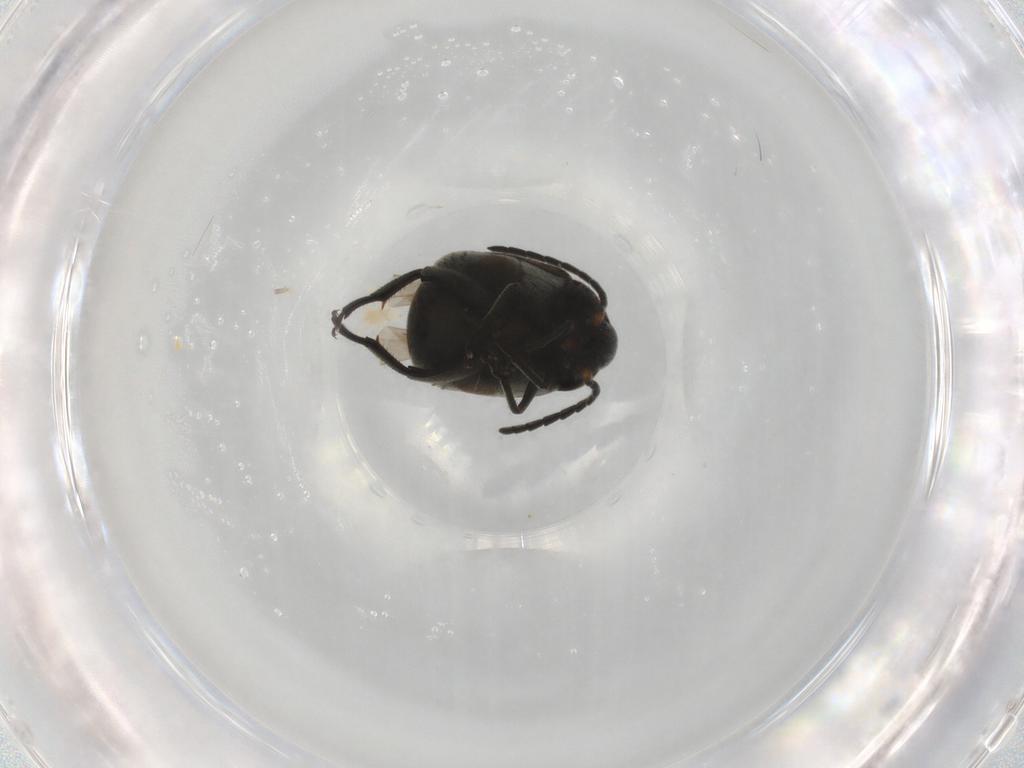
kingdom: Animalia
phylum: Arthropoda
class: Insecta
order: Coleoptera
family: Chrysomelidae
